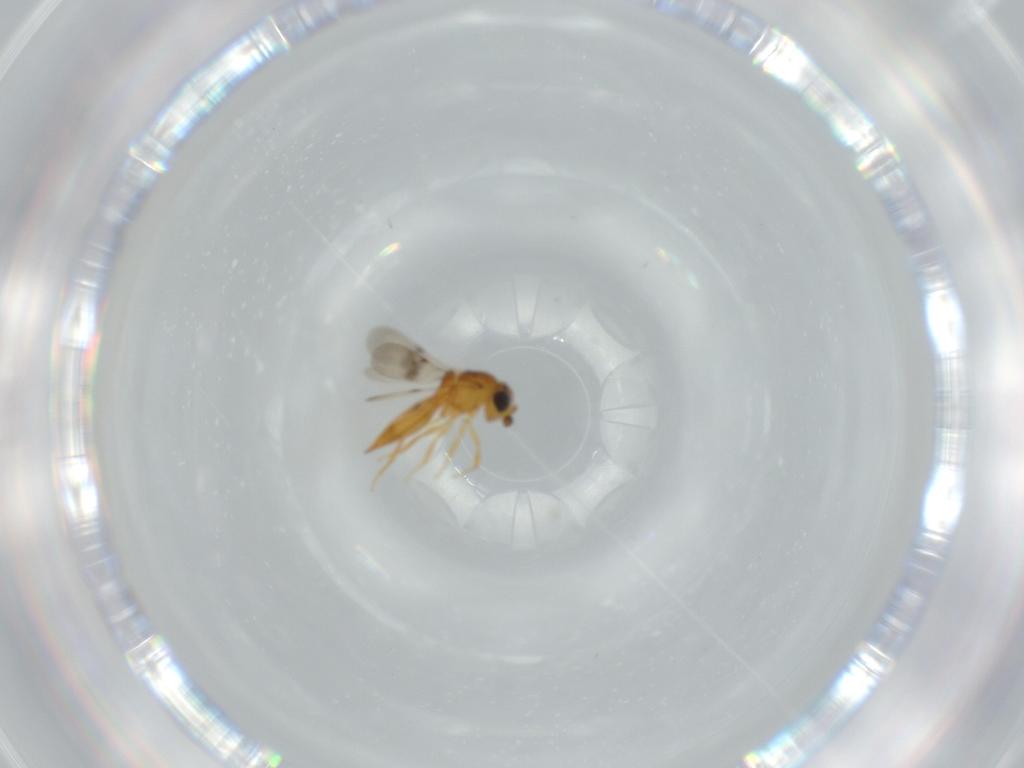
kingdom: Animalia
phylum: Arthropoda
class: Insecta
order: Hymenoptera
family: Scelionidae
